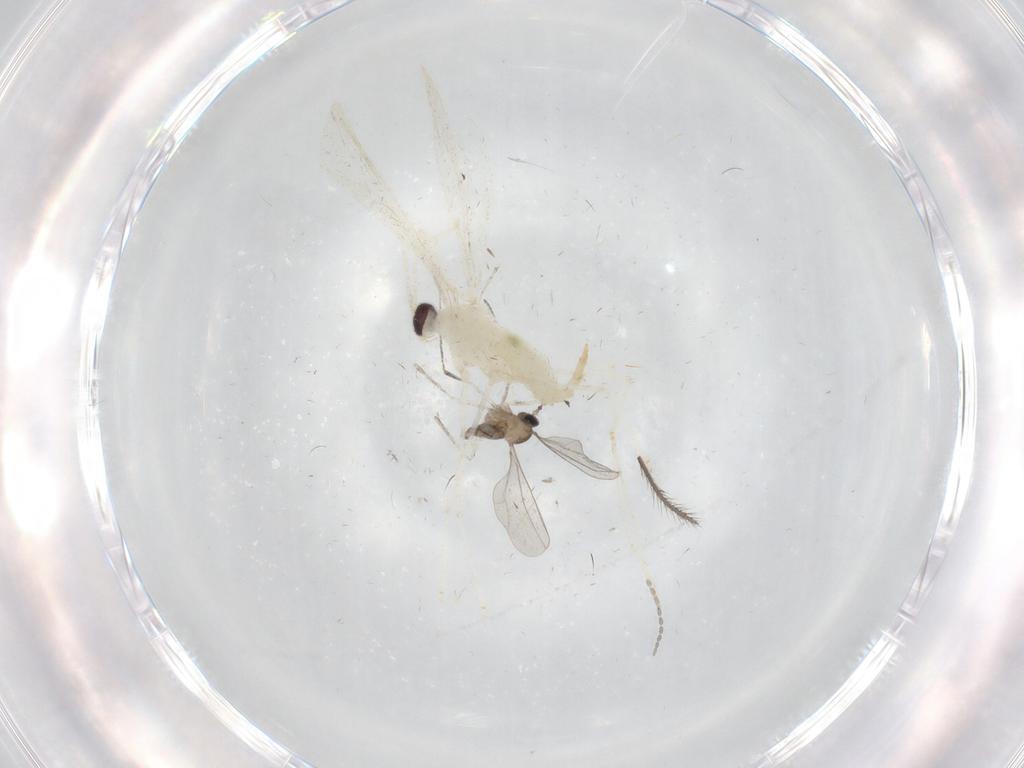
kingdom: Animalia
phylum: Arthropoda
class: Insecta
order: Diptera
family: Cecidomyiidae
